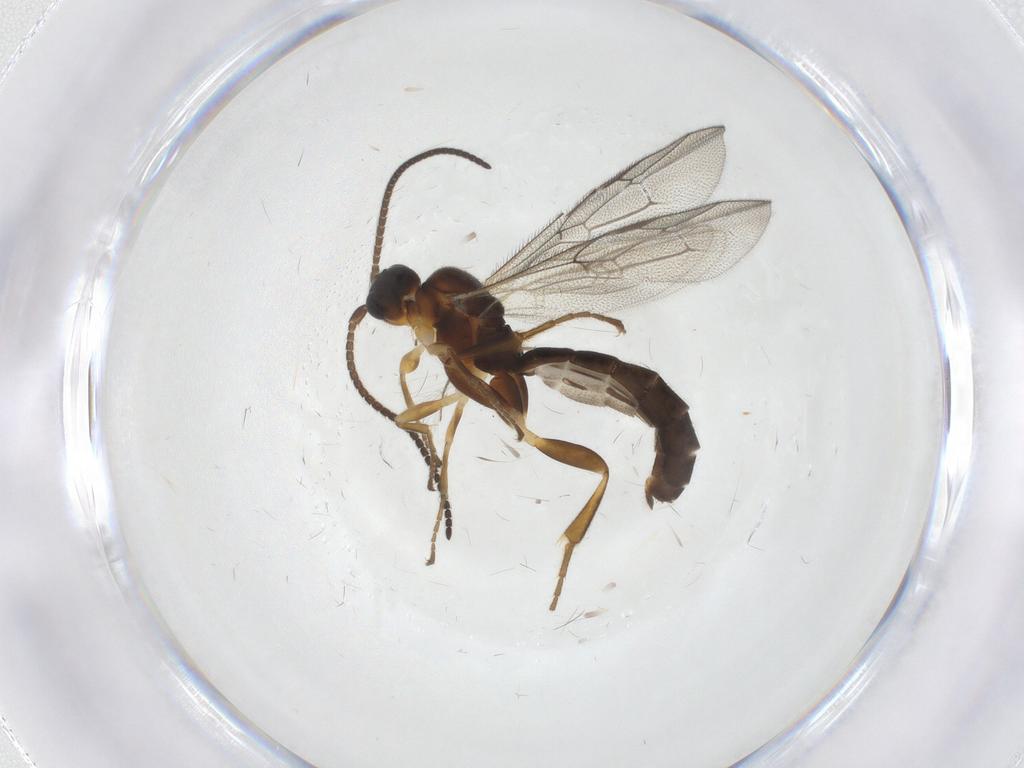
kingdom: Animalia
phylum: Arthropoda
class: Insecta
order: Hymenoptera
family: Ichneumonidae
